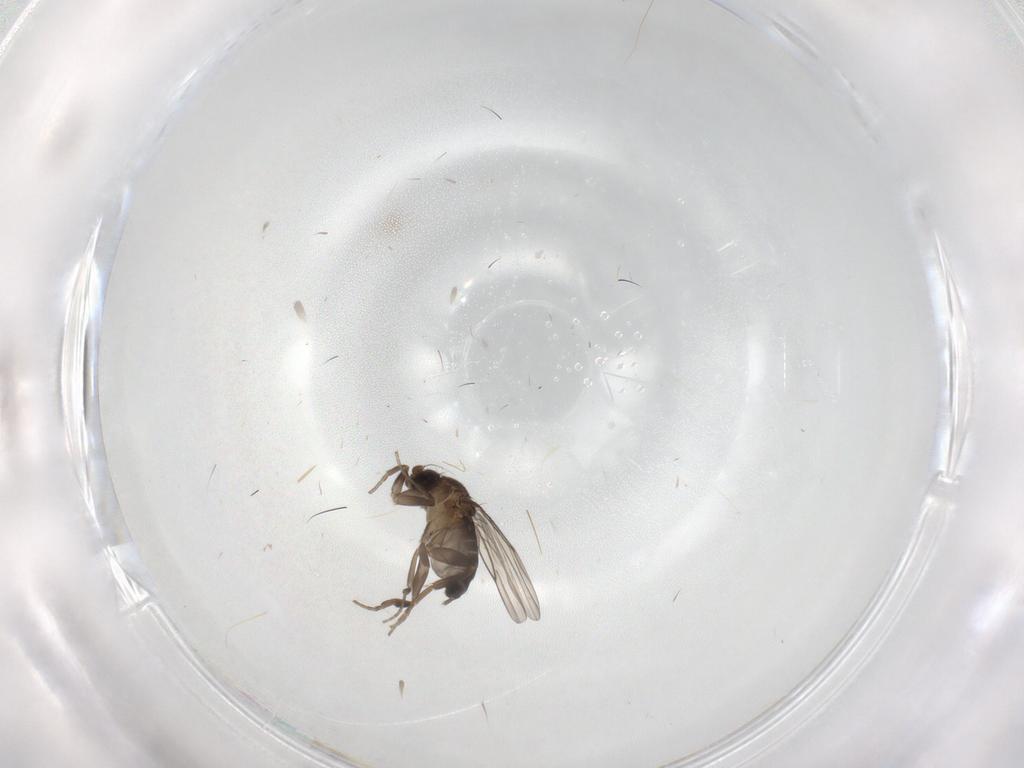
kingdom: Animalia
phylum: Arthropoda
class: Insecta
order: Diptera
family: Phoridae
